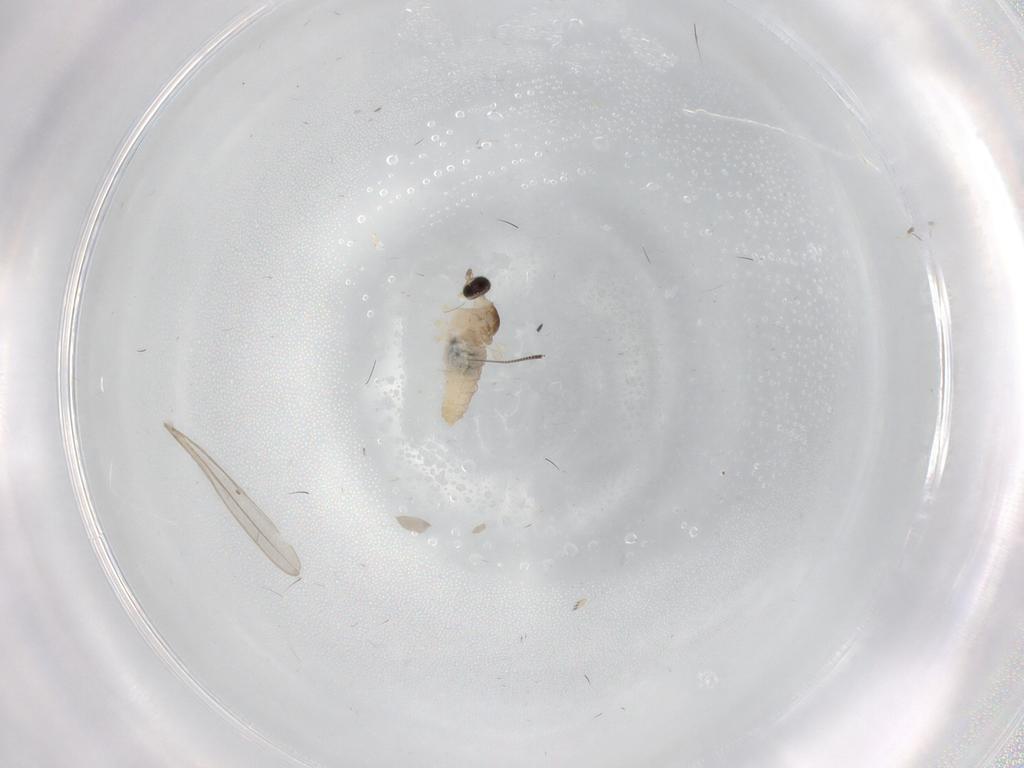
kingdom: Animalia
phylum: Arthropoda
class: Insecta
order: Diptera
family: Cecidomyiidae
